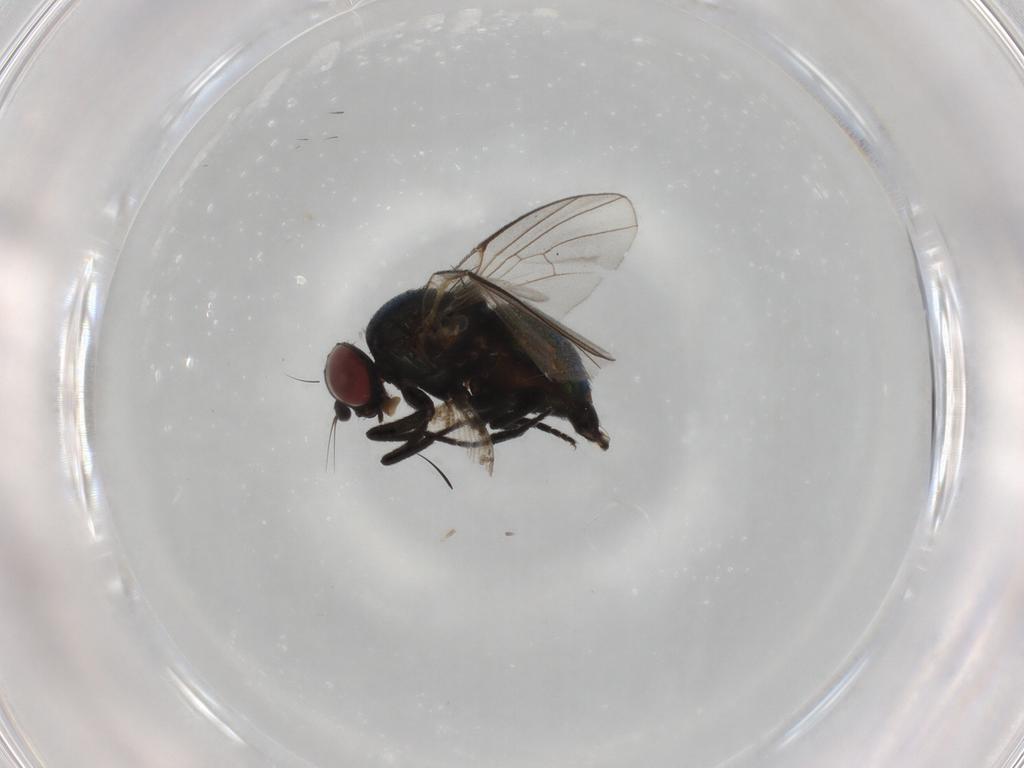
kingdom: Animalia
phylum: Arthropoda
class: Insecta
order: Diptera
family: Agromyzidae
